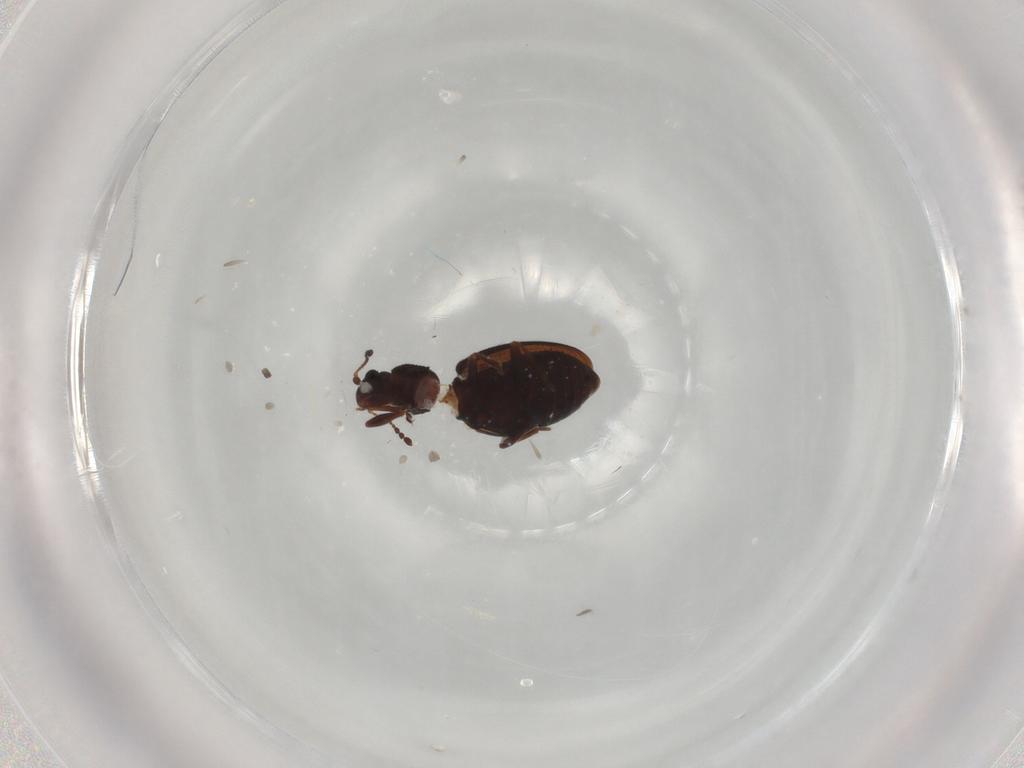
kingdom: Animalia
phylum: Arthropoda
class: Insecta
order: Coleoptera
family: Latridiidae
